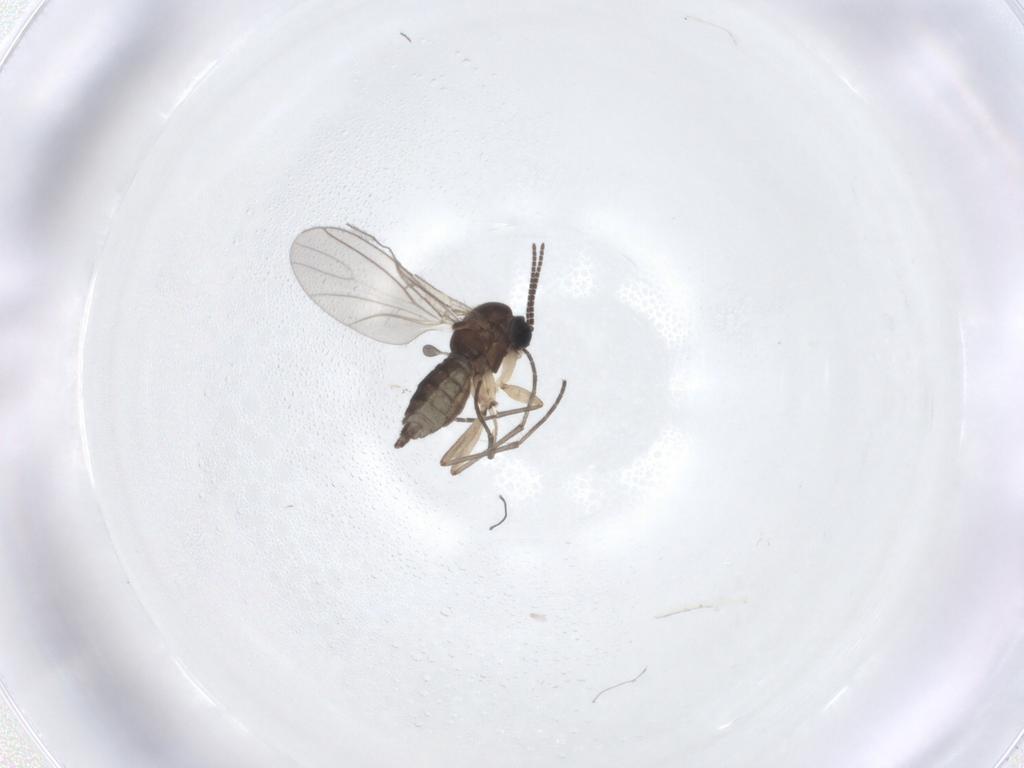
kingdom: Animalia
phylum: Arthropoda
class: Insecta
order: Diptera
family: Sciaridae
